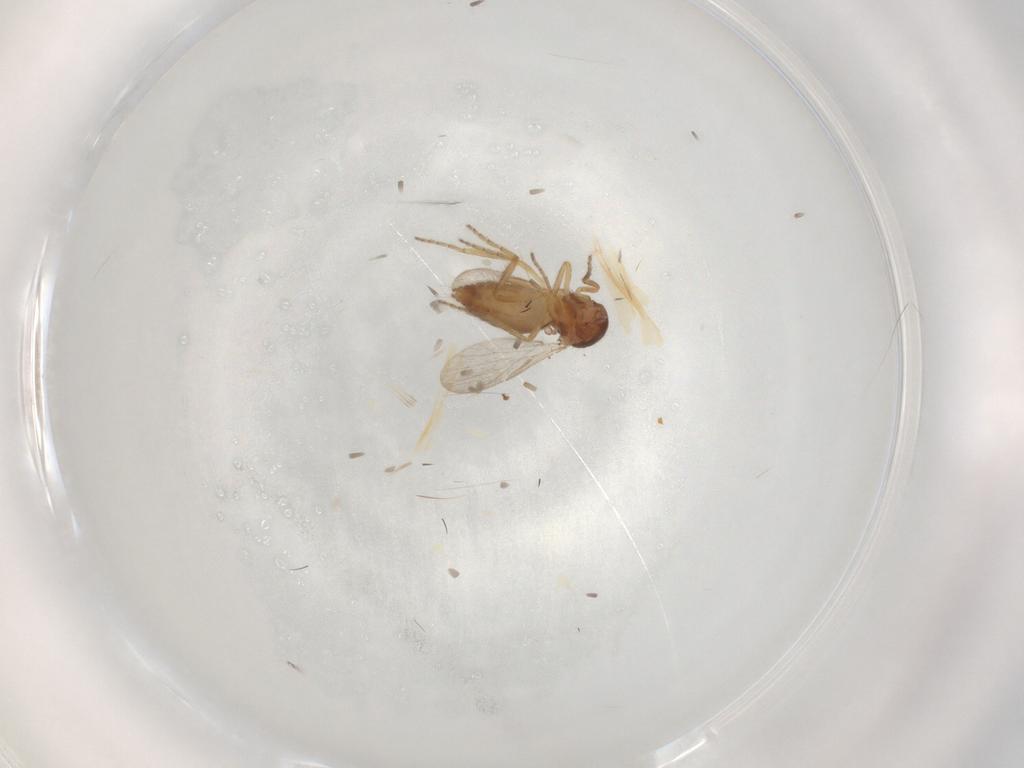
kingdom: Animalia
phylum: Arthropoda
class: Insecta
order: Diptera
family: Ceratopogonidae
